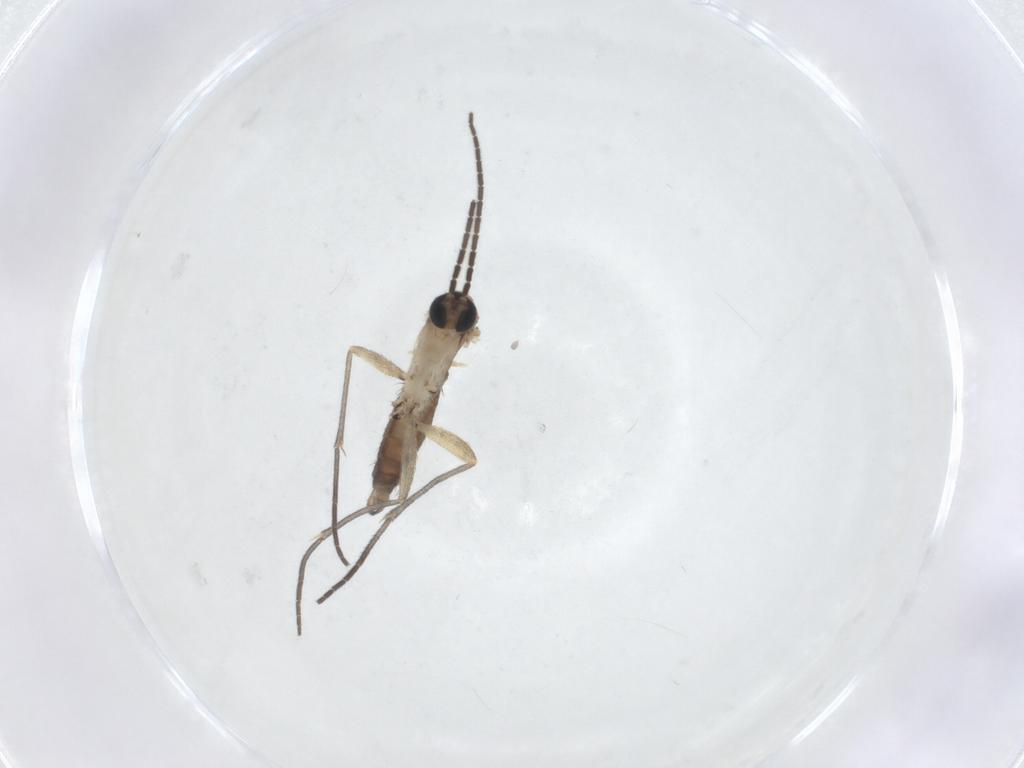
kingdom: Animalia
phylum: Arthropoda
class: Insecta
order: Diptera
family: Sciaridae
